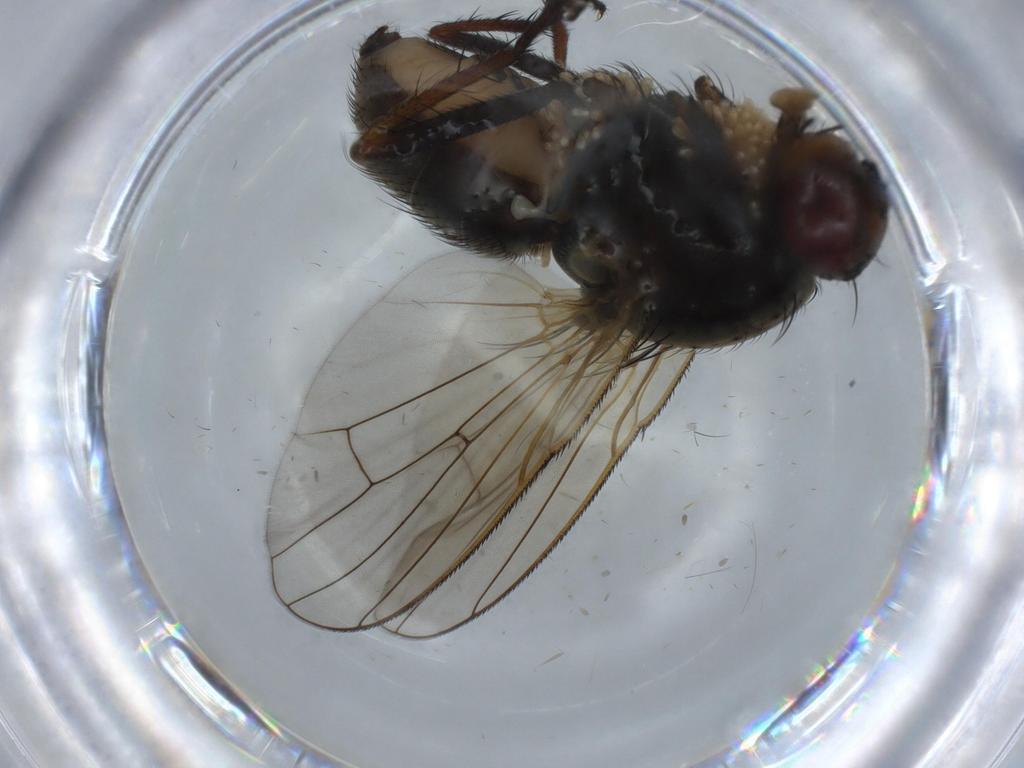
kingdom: Animalia
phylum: Arthropoda
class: Insecta
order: Diptera
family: Anthomyiidae
